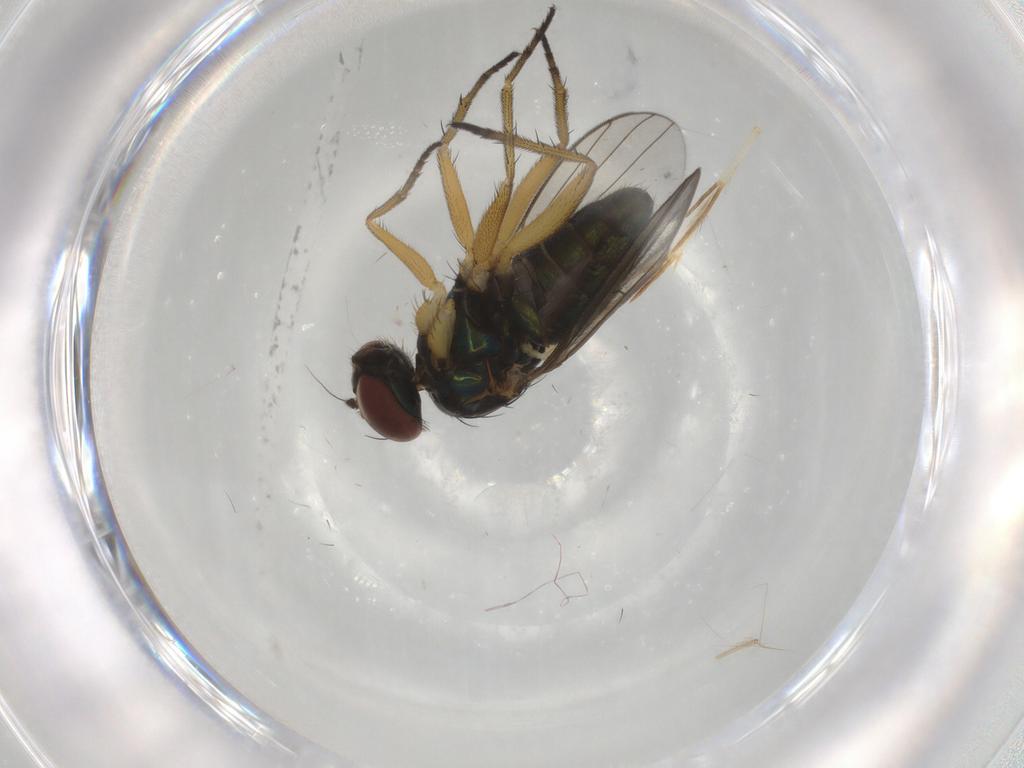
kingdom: Animalia
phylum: Arthropoda
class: Insecta
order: Diptera
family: Dolichopodidae
